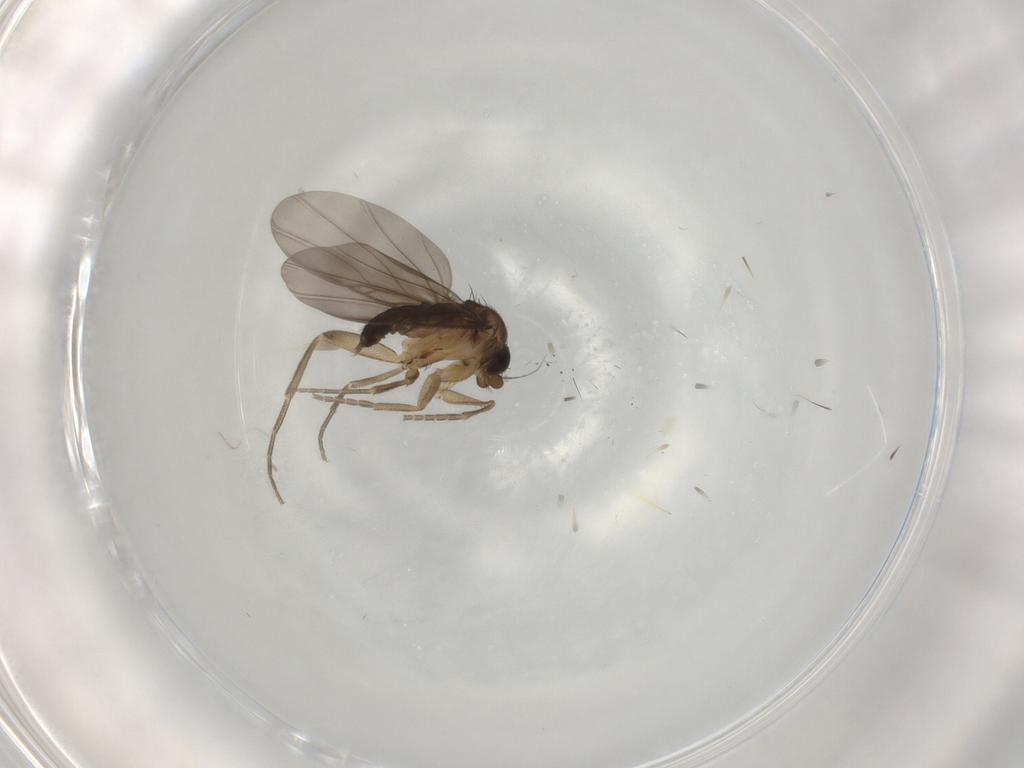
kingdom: Animalia
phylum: Arthropoda
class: Insecta
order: Diptera
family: Phoridae
